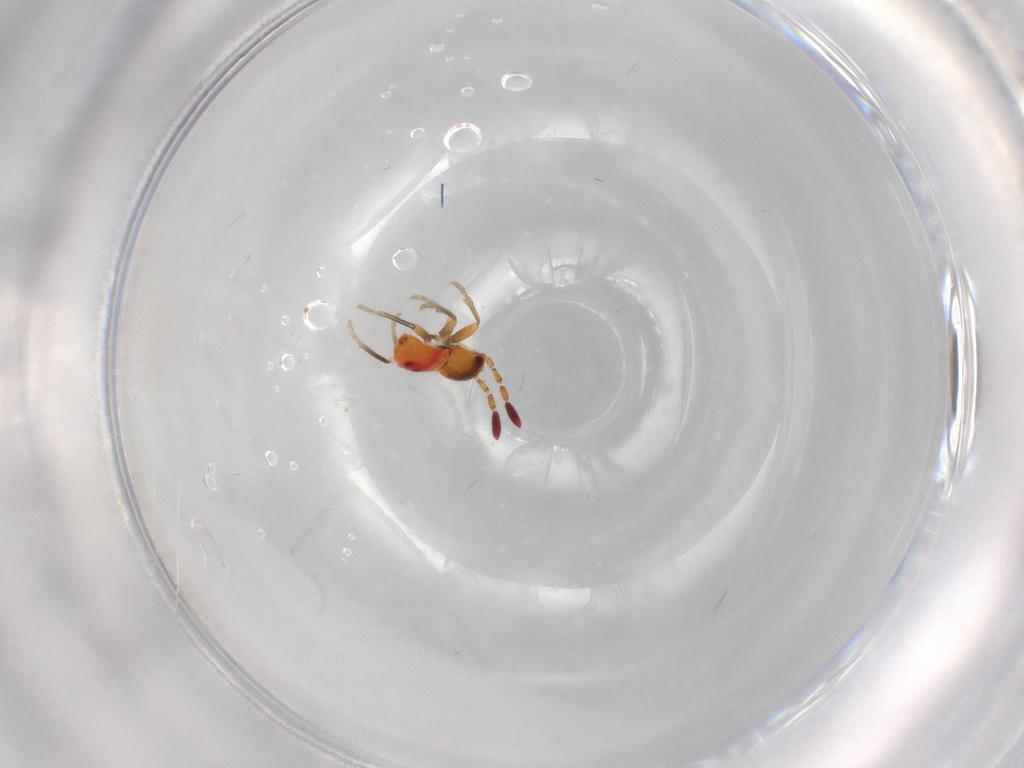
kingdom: Animalia
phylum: Arthropoda
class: Insecta
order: Hemiptera
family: Rhyparochromidae
